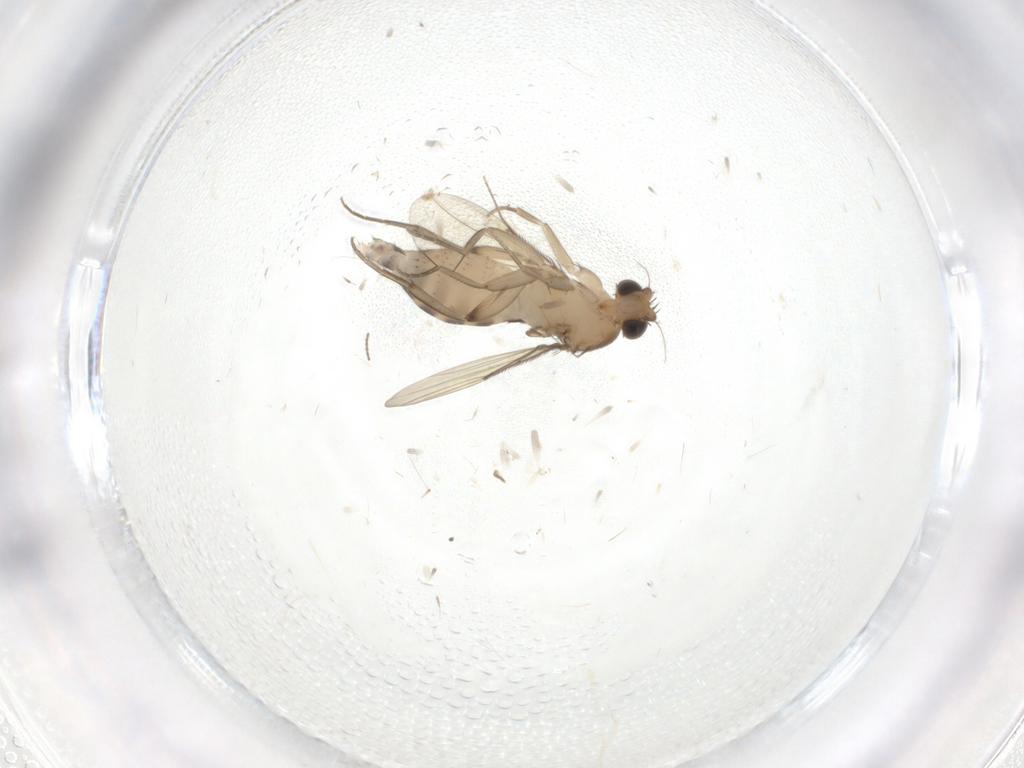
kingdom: Animalia
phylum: Arthropoda
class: Insecta
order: Diptera
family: Phoridae
